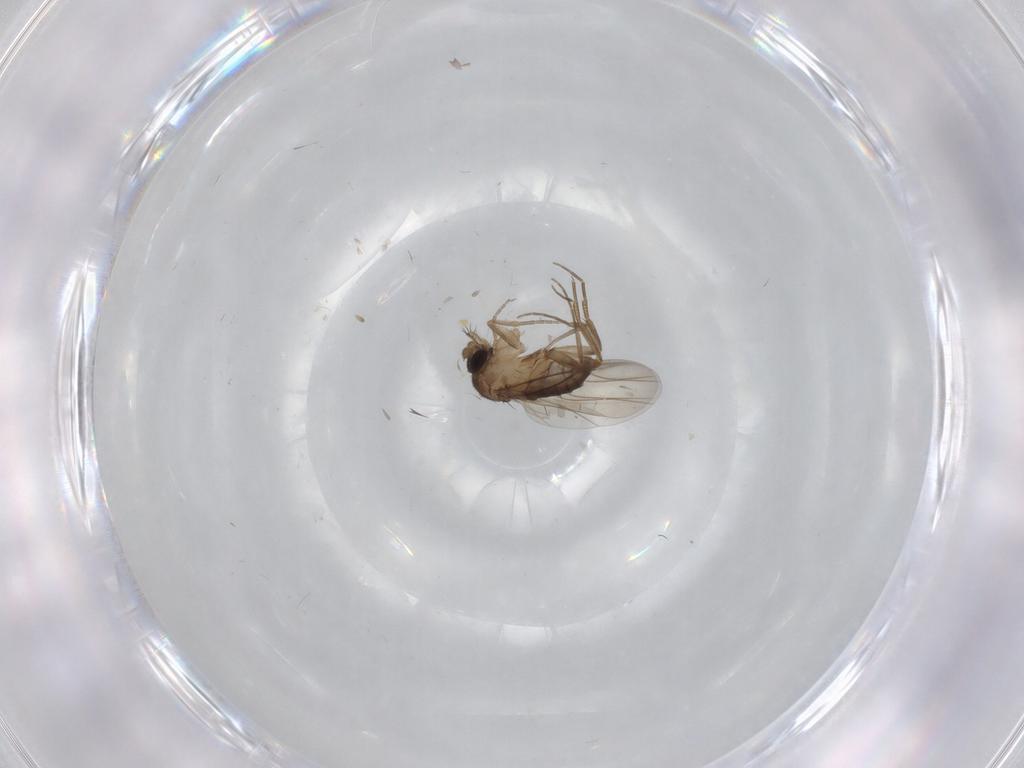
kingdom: Animalia
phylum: Arthropoda
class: Insecta
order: Diptera
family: Limoniidae
